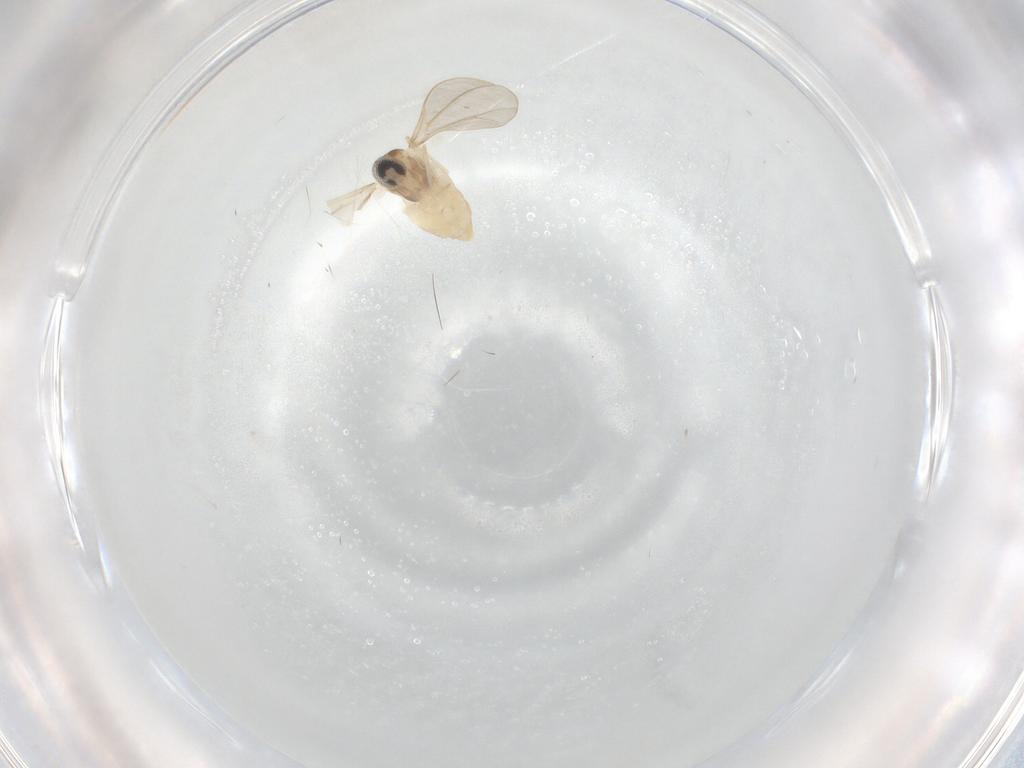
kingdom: Animalia
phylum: Arthropoda
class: Insecta
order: Diptera
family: Cecidomyiidae
